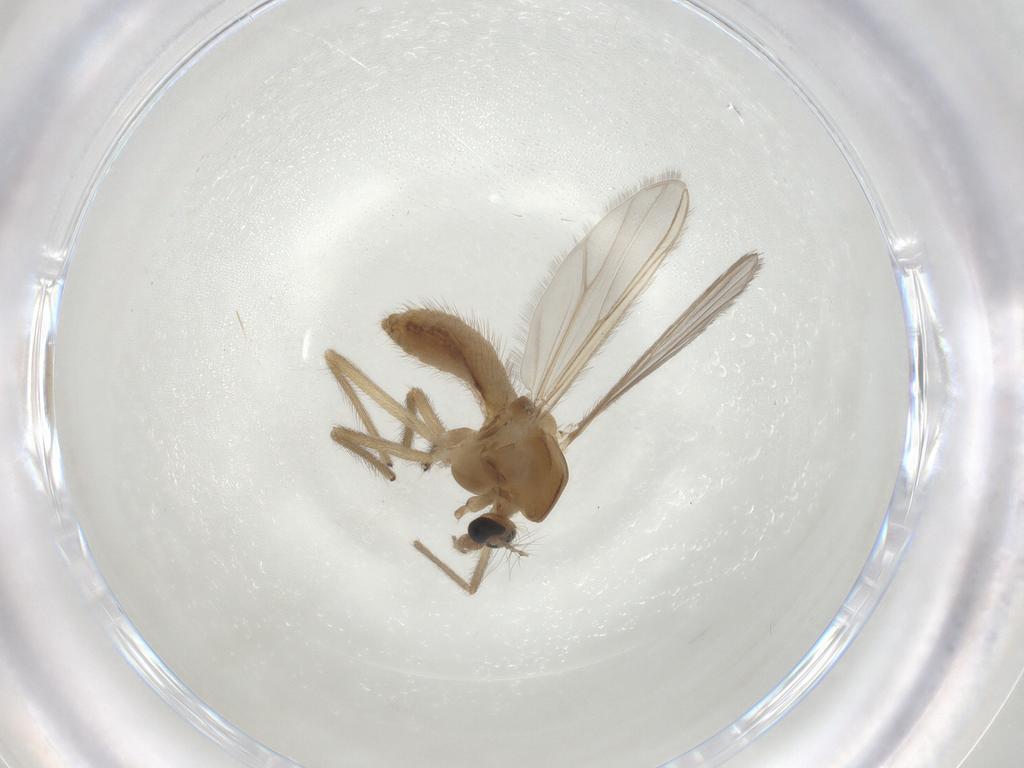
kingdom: Animalia
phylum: Arthropoda
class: Insecta
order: Diptera
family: Chironomidae
